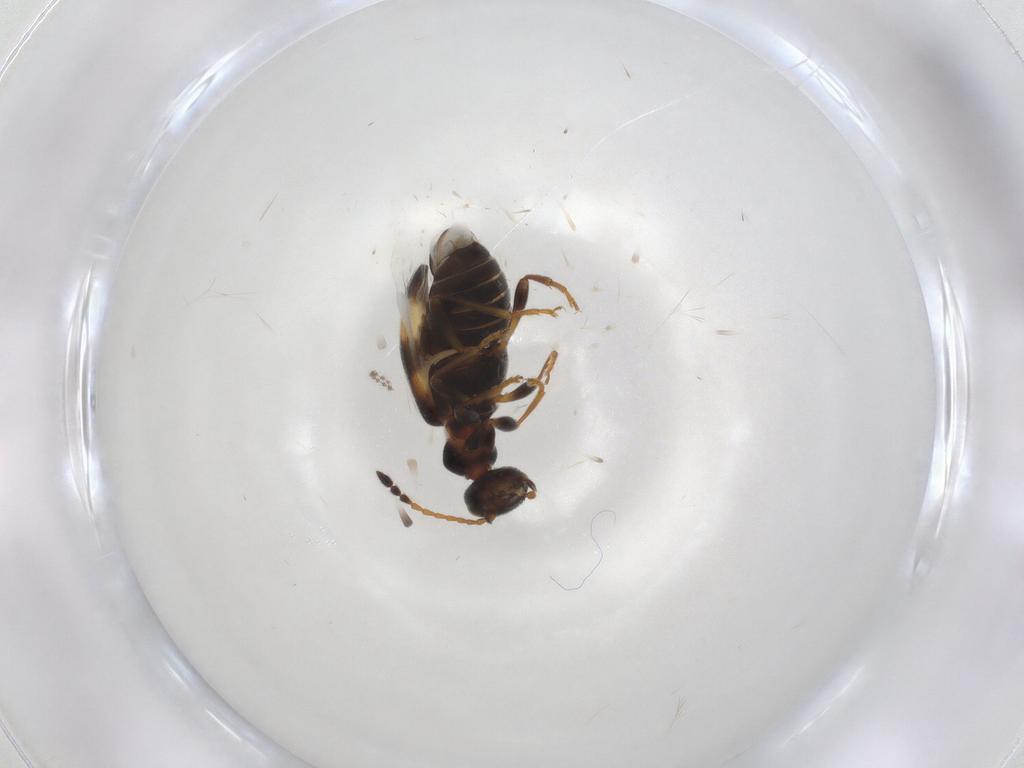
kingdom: Animalia
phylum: Arthropoda
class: Insecta
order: Coleoptera
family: Anthicidae
